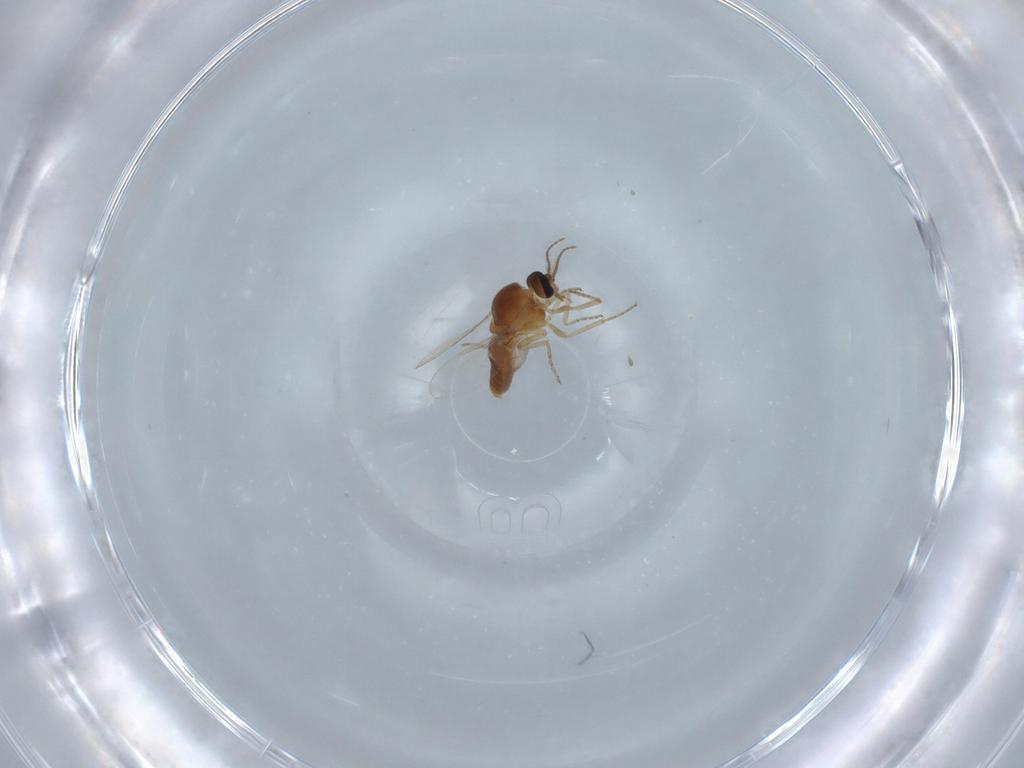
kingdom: Animalia
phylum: Arthropoda
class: Insecta
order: Diptera
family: Ceratopogonidae
